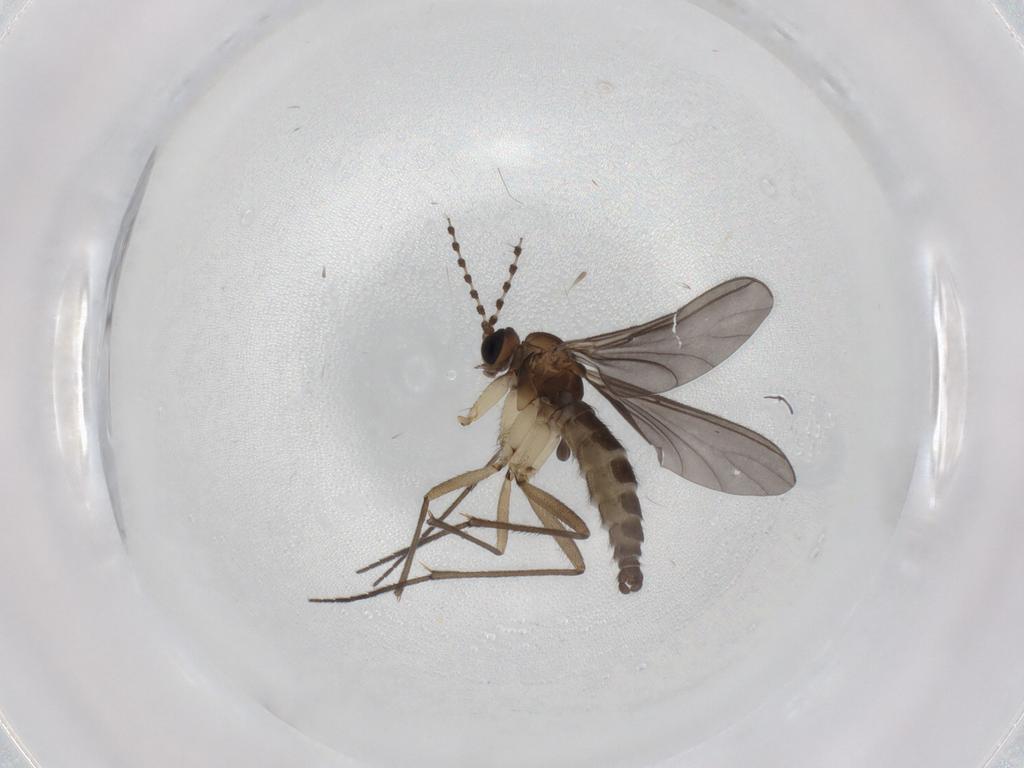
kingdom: Animalia
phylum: Arthropoda
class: Insecta
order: Diptera
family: Sciaridae
